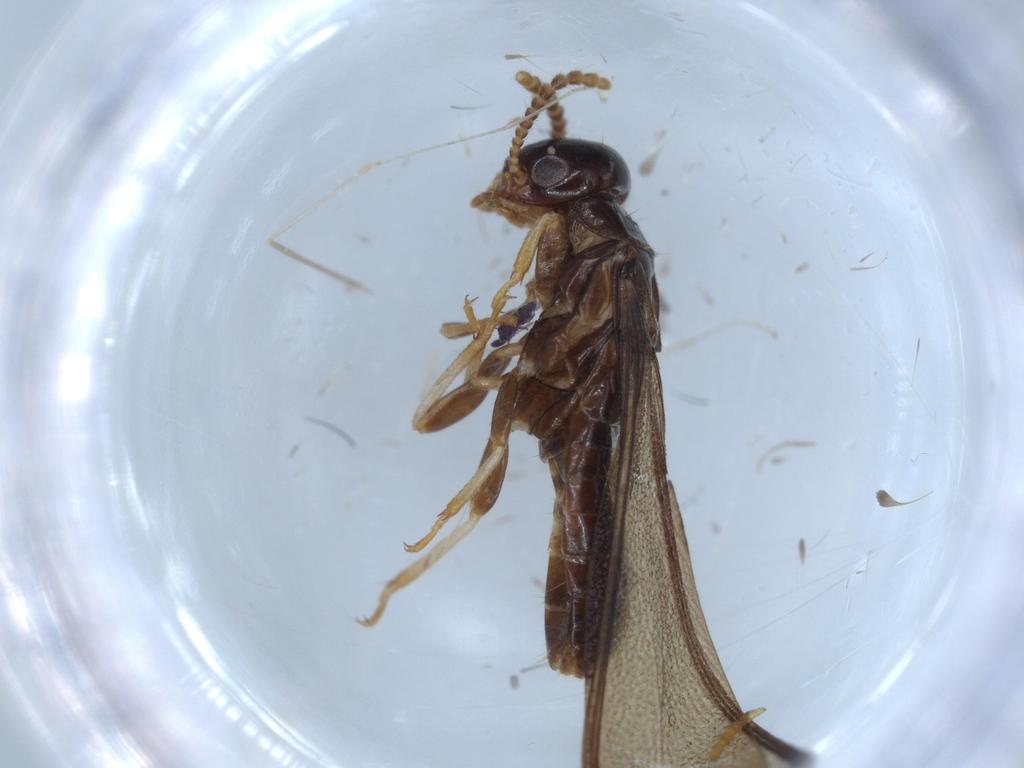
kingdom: Animalia
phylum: Arthropoda
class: Insecta
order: Blattodea
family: Blattidae
